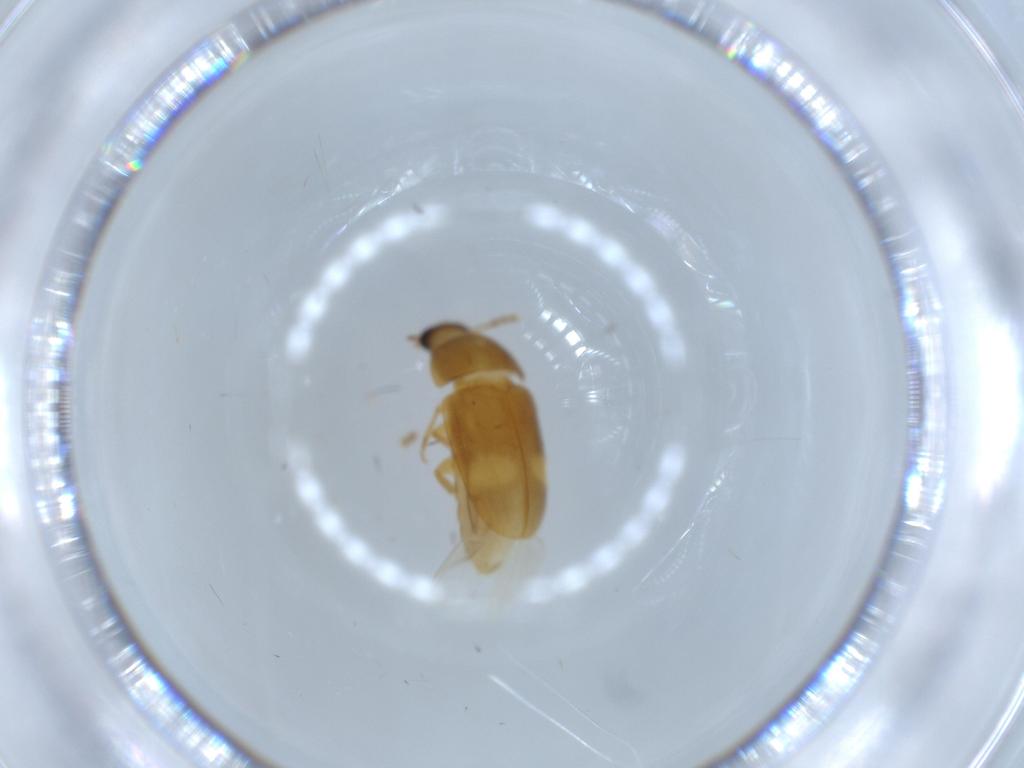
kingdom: Animalia
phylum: Arthropoda
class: Insecta
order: Coleoptera
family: Mycetophagidae
